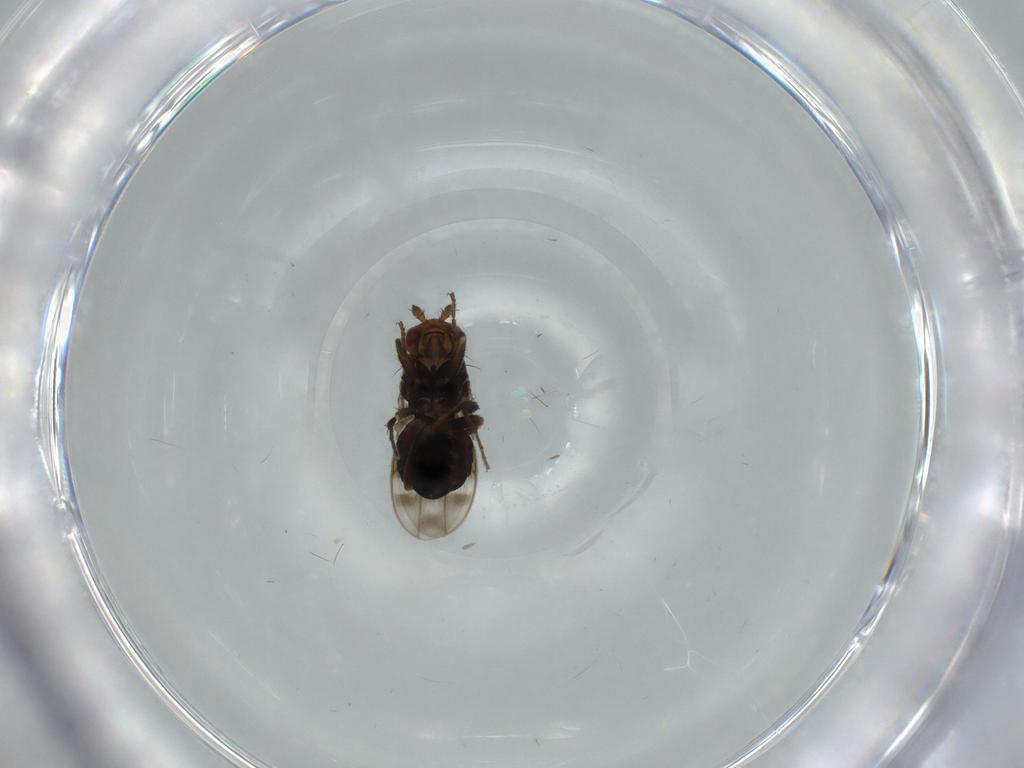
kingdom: Animalia
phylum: Arthropoda
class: Insecta
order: Diptera
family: Sphaeroceridae
